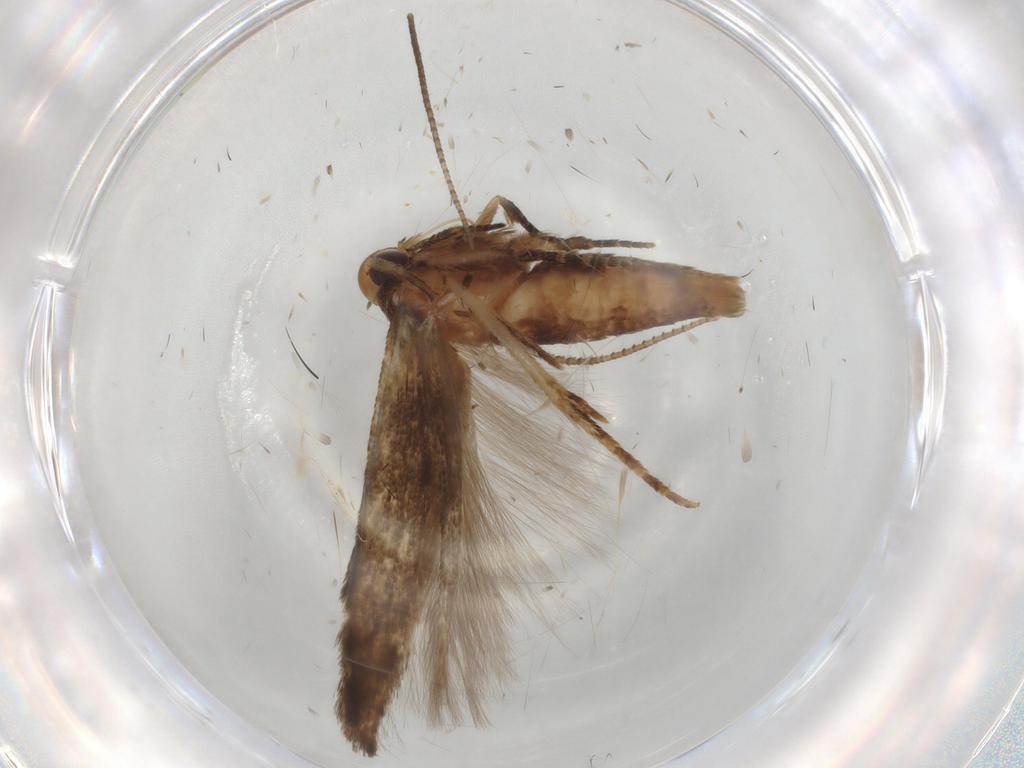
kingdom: Animalia
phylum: Arthropoda
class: Insecta
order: Lepidoptera
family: Cosmopterigidae
